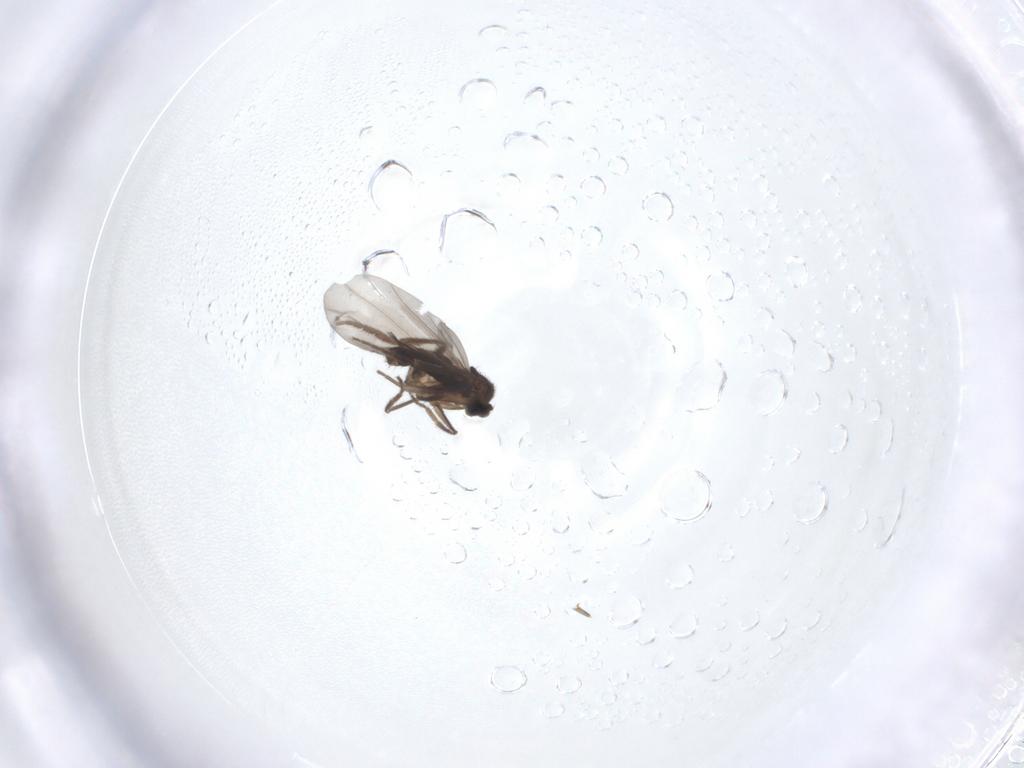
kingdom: Animalia
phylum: Arthropoda
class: Insecta
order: Diptera
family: Phoridae
